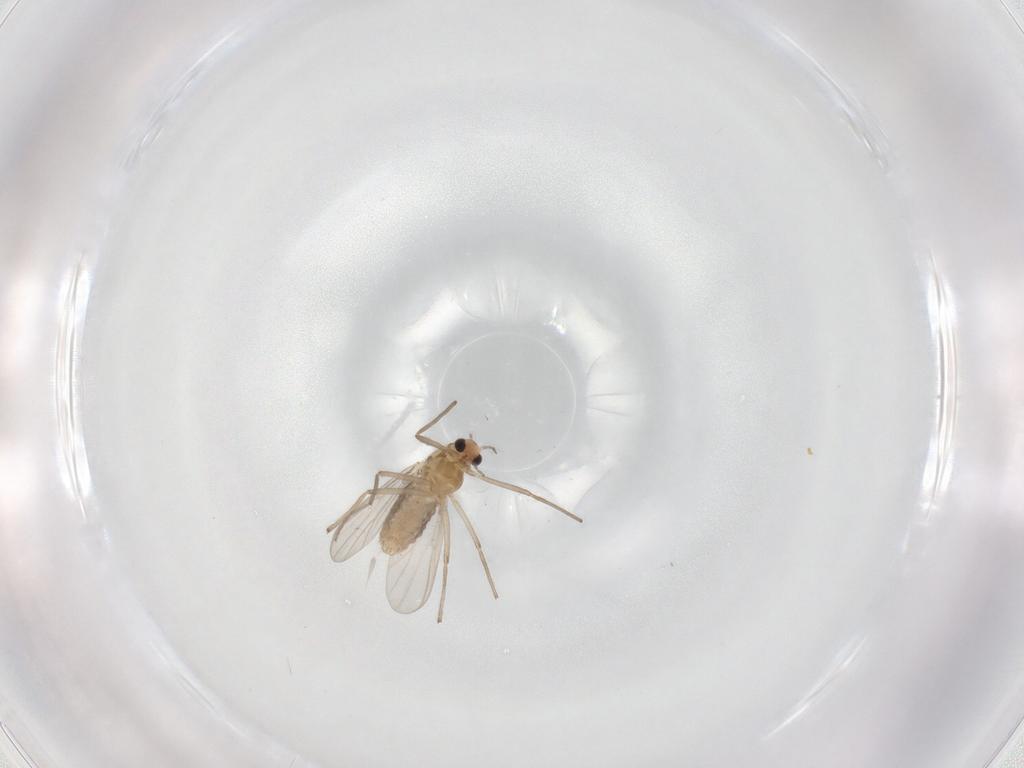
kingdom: Animalia
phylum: Arthropoda
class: Insecta
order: Diptera
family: Chironomidae
